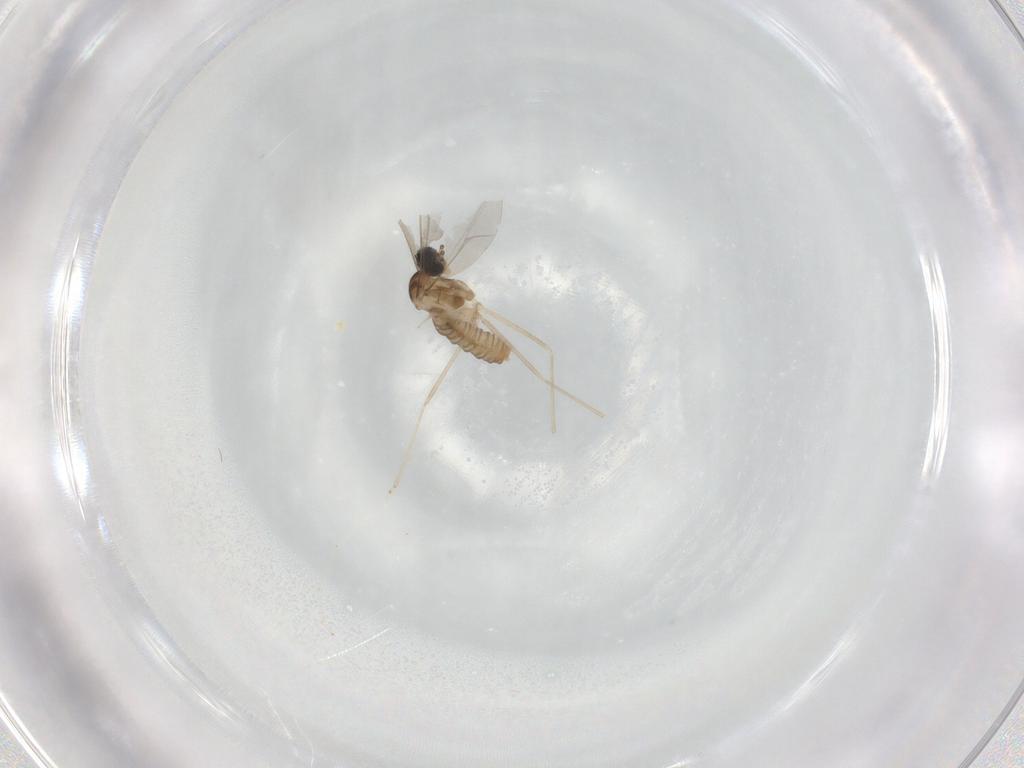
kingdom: Animalia
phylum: Arthropoda
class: Insecta
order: Diptera
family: Cecidomyiidae
